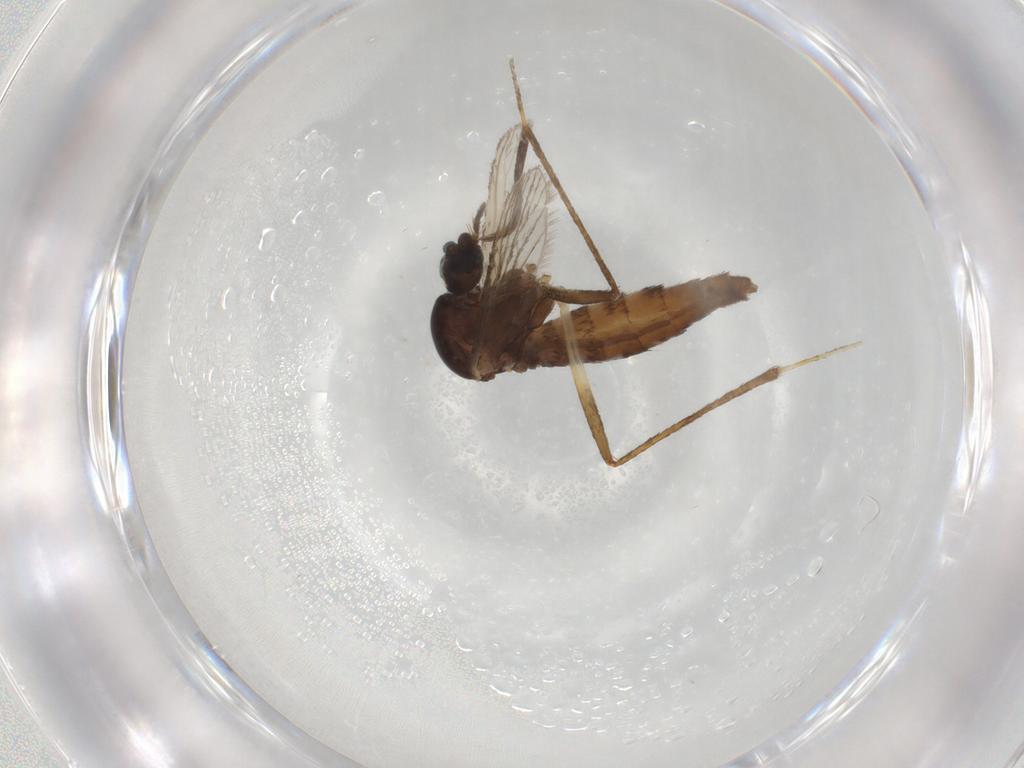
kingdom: Animalia
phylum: Arthropoda
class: Insecta
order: Diptera
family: Culicidae
